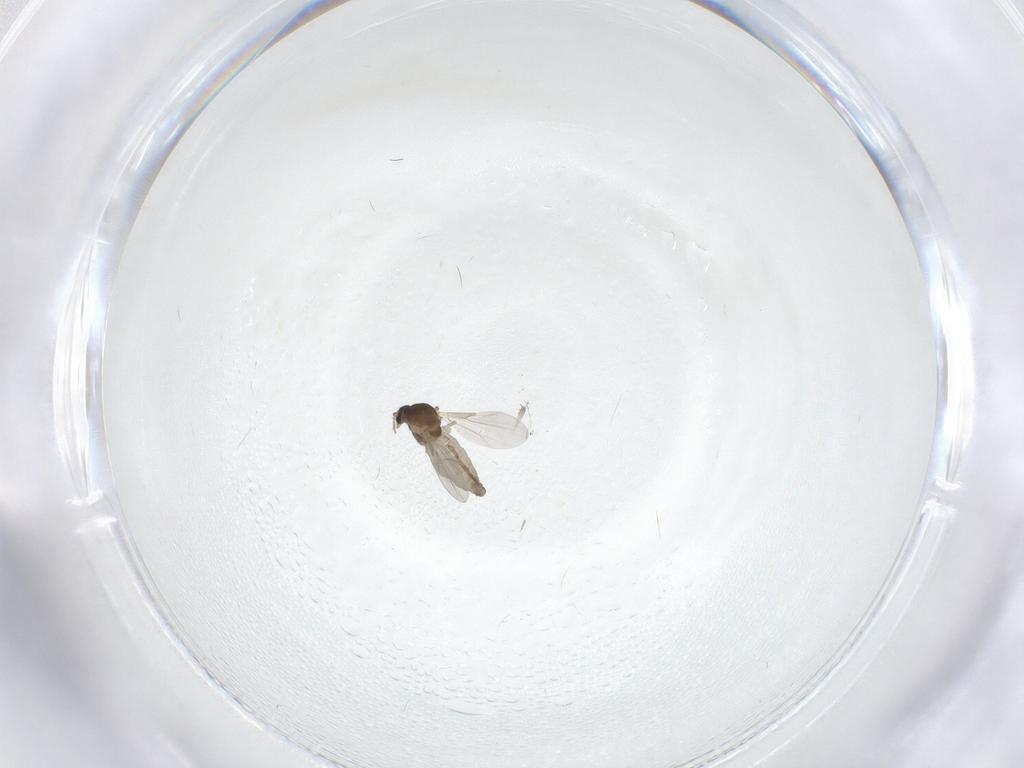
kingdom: Animalia
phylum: Arthropoda
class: Insecta
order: Diptera
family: Ceratopogonidae
